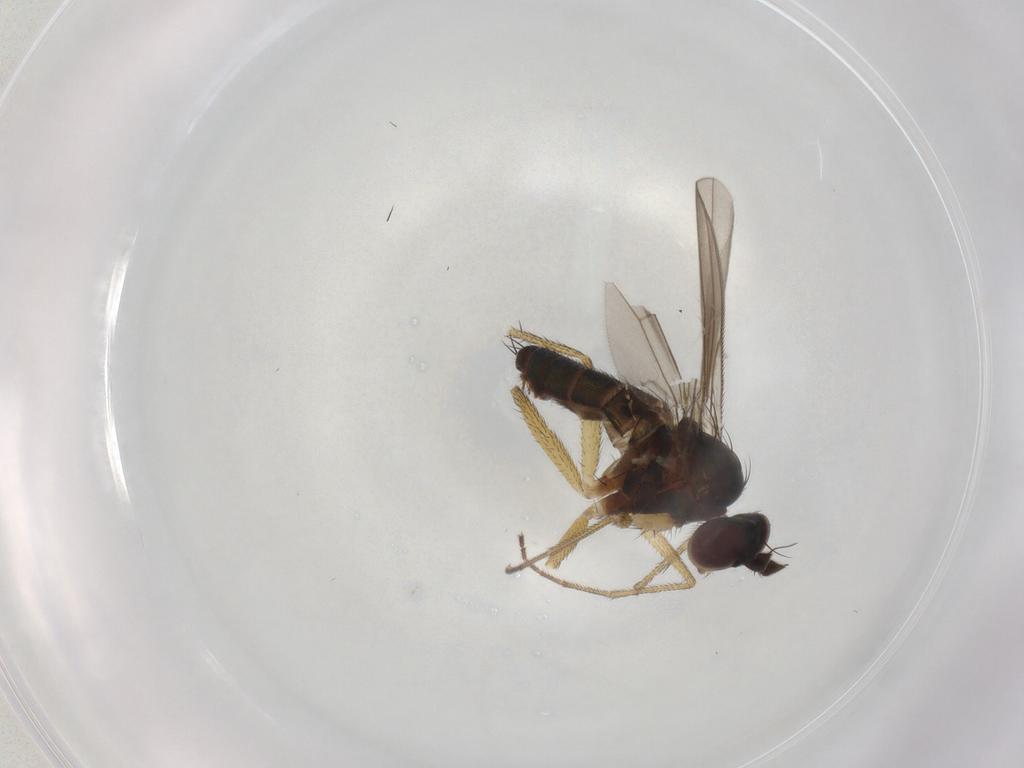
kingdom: Animalia
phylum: Arthropoda
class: Insecta
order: Diptera
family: Dolichopodidae
